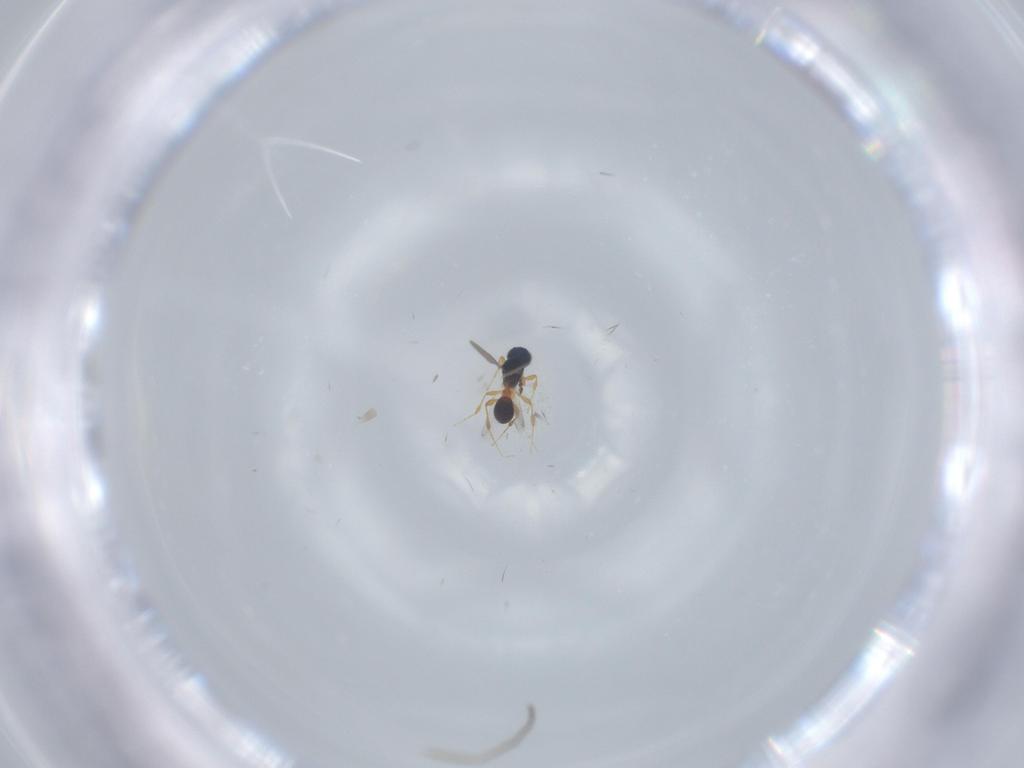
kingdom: Animalia
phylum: Arthropoda
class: Insecta
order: Hymenoptera
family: Platygastridae
